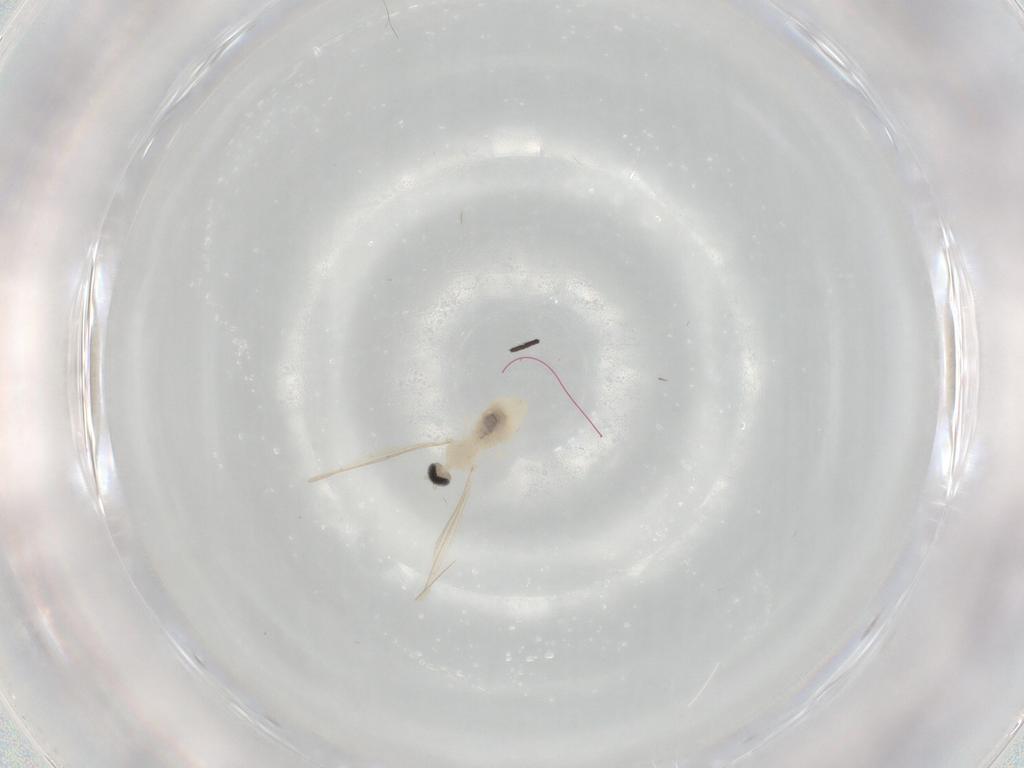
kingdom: Animalia
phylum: Arthropoda
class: Insecta
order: Diptera
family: Cecidomyiidae
